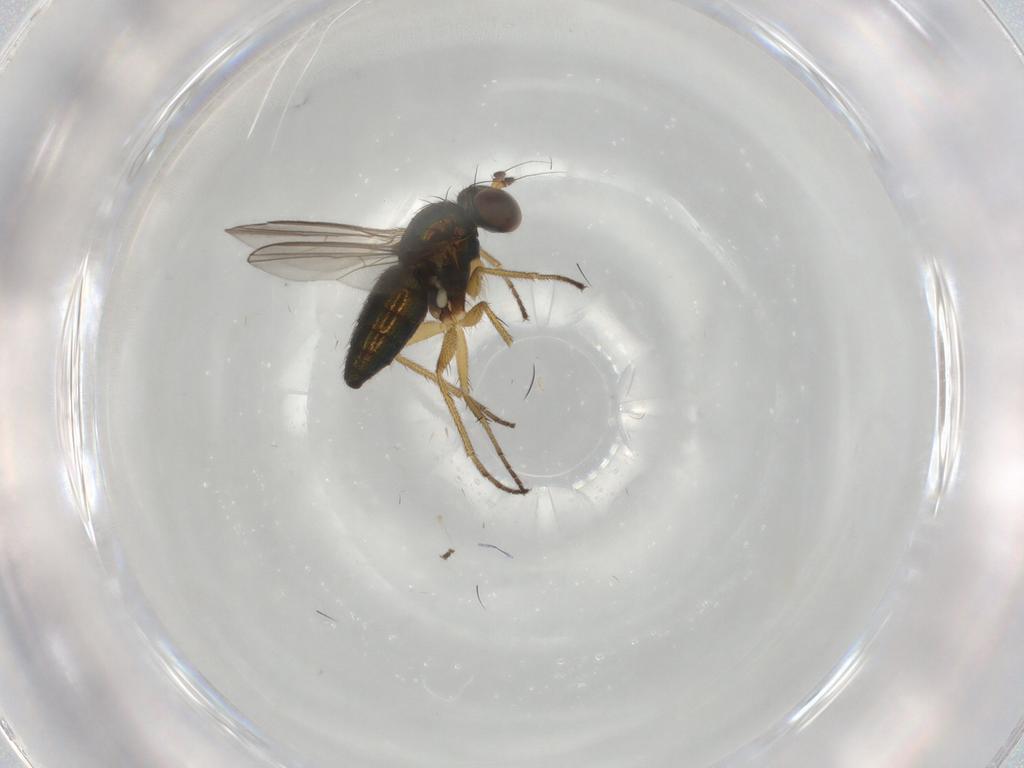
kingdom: Animalia
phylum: Arthropoda
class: Insecta
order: Diptera
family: Dolichopodidae
